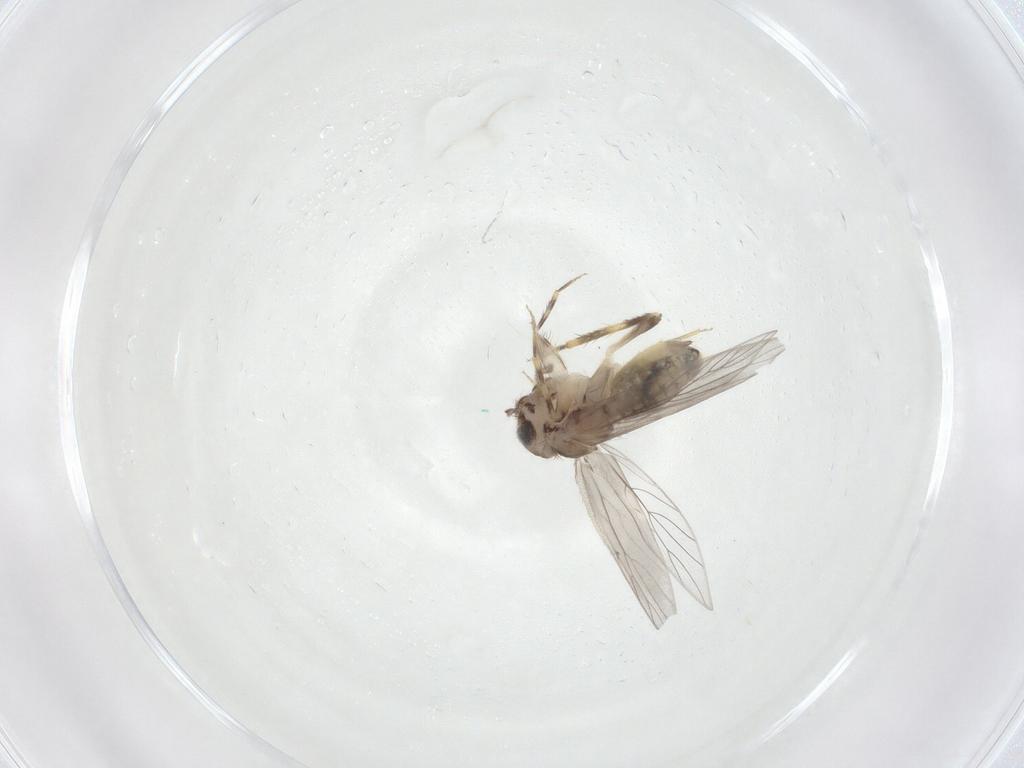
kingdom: Animalia
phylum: Arthropoda
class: Insecta
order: Psocodea
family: Lepidopsocidae
